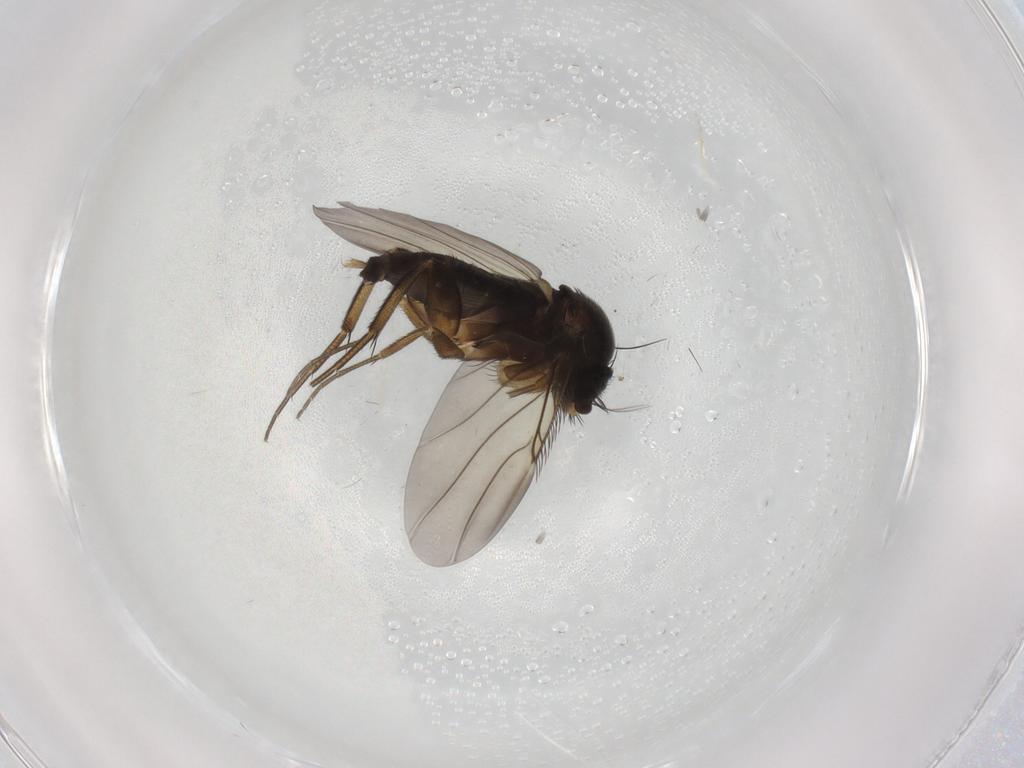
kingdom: Animalia
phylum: Arthropoda
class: Insecta
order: Diptera
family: Phoridae
